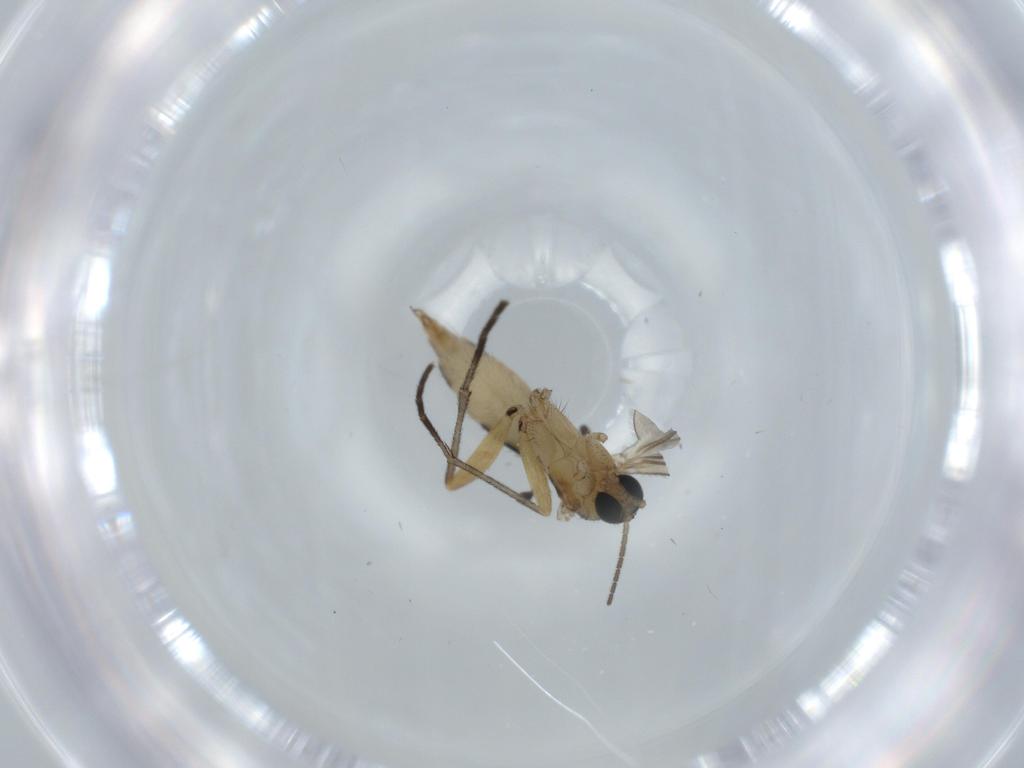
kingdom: Animalia
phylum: Arthropoda
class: Insecta
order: Diptera
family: Sciaridae
